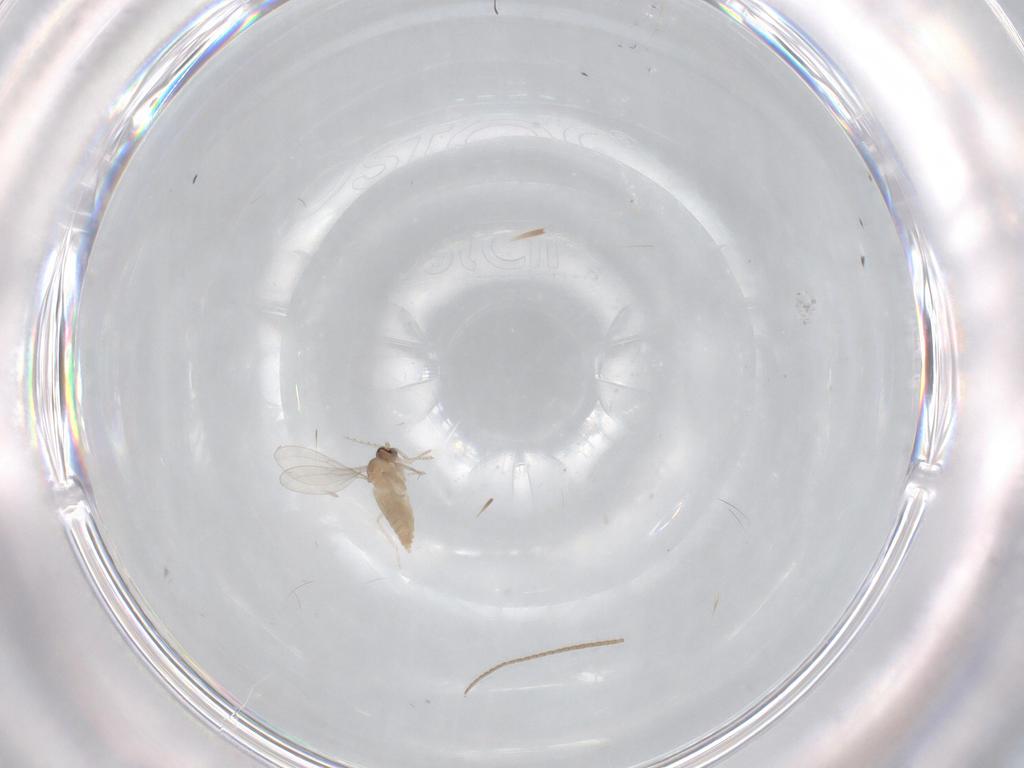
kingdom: Animalia
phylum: Arthropoda
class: Insecta
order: Diptera
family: Cecidomyiidae
